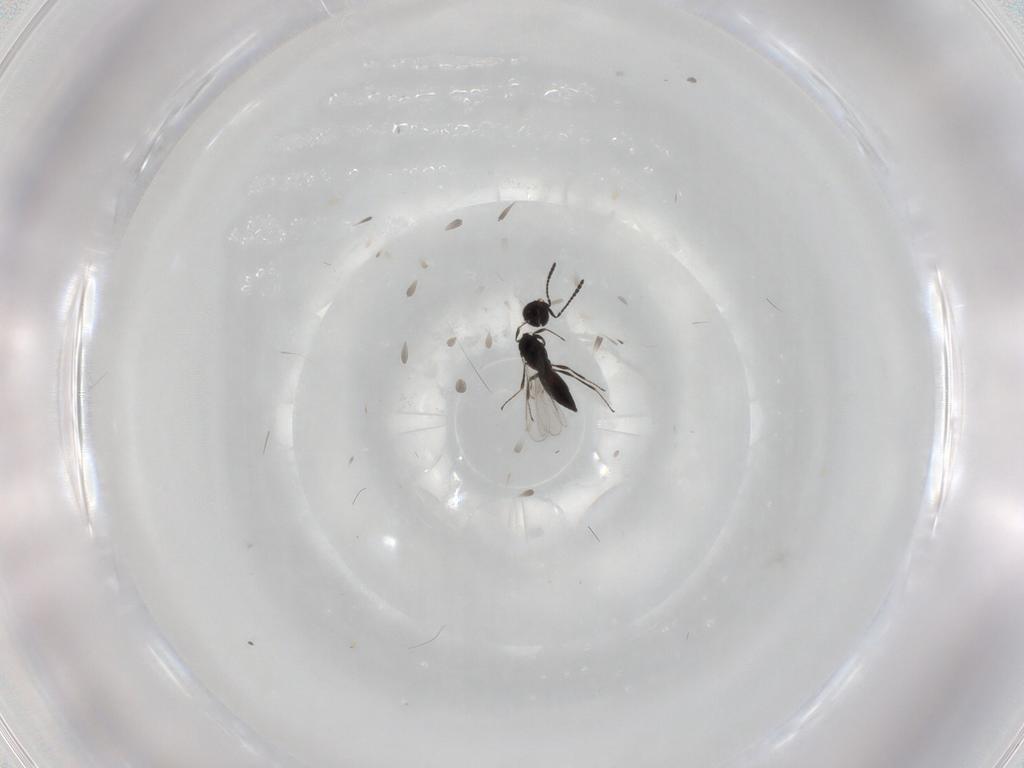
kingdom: Animalia
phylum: Arthropoda
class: Insecta
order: Hymenoptera
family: Scelionidae
